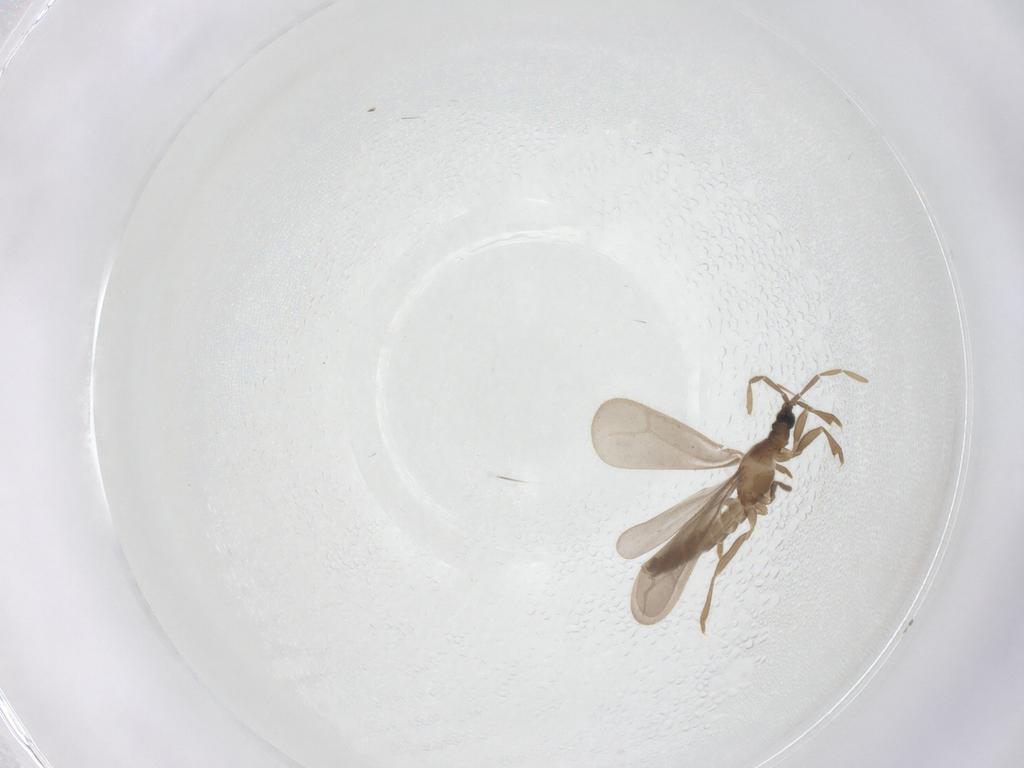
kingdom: Animalia
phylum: Arthropoda
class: Insecta
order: Hemiptera
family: Enicocephalidae
